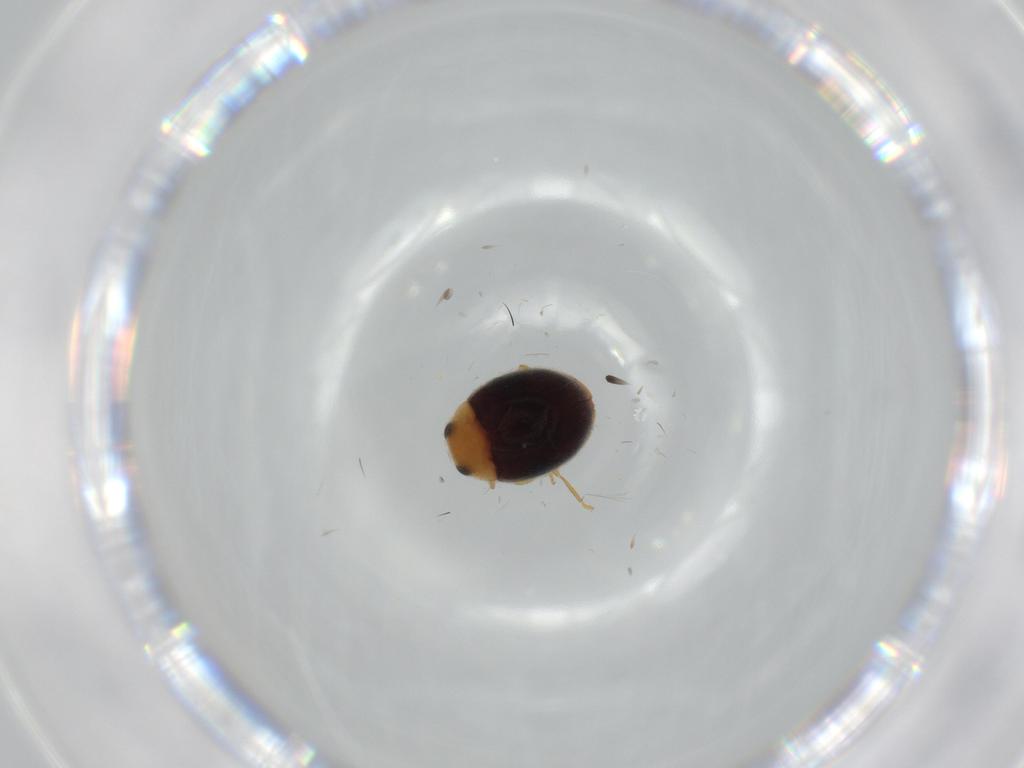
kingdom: Animalia
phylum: Arthropoda
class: Insecta
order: Coleoptera
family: Coccinellidae
